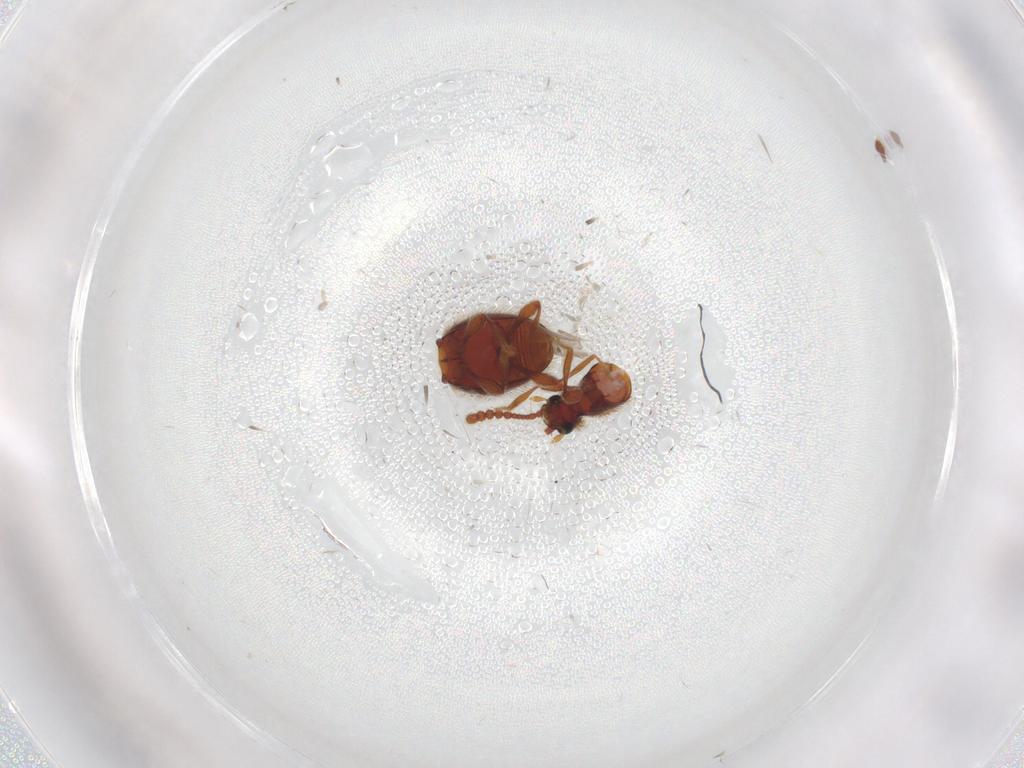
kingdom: Animalia
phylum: Arthropoda
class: Insecta
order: Coleoptera
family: Staphylinidae
